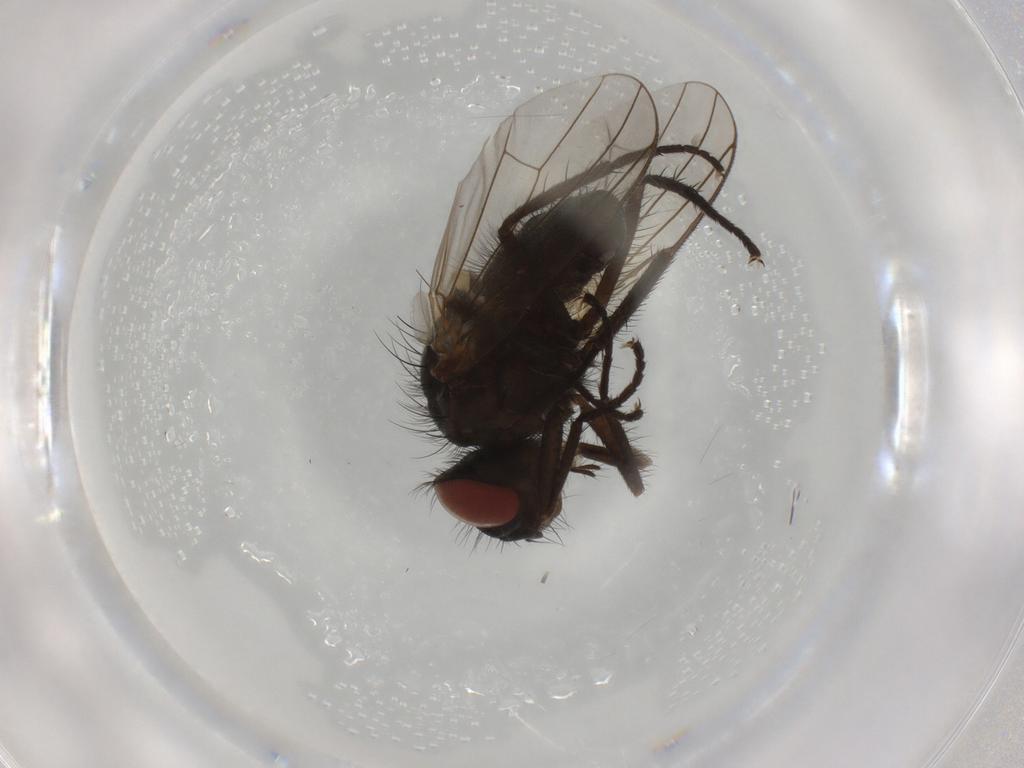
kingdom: Animalia
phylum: Arthropoda
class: Insecta
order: Diptera
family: Anthomyiidae
